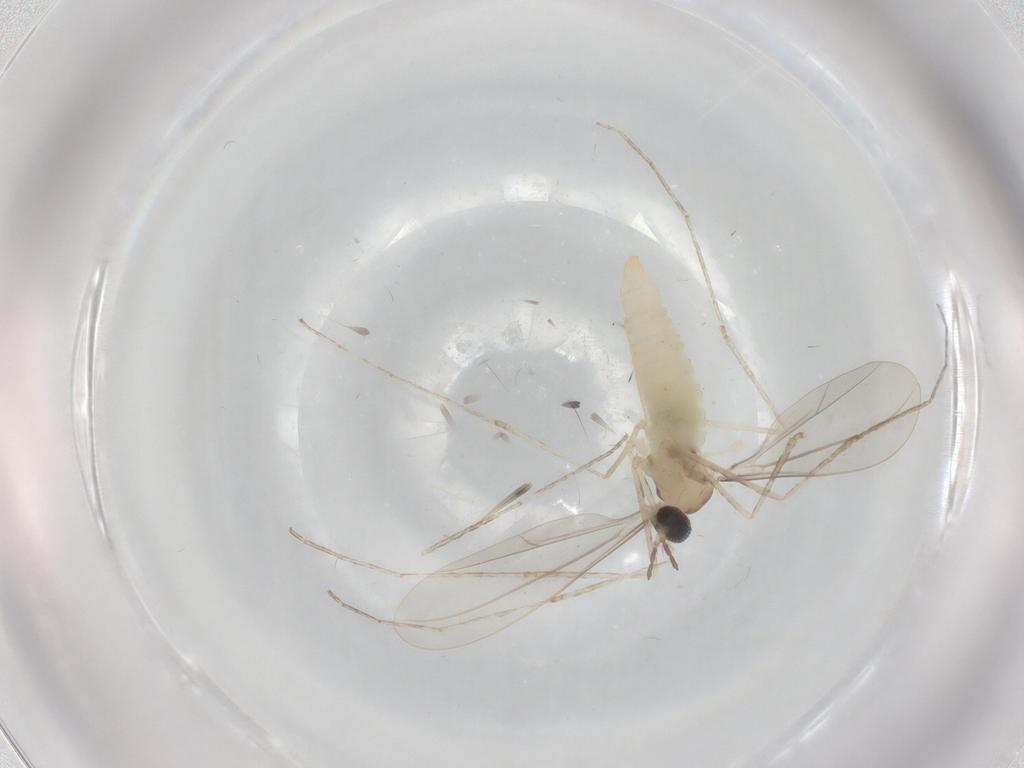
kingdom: Animalia
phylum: Arthropoda
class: Insecta
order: Diptera
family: Cecidomyiidae
